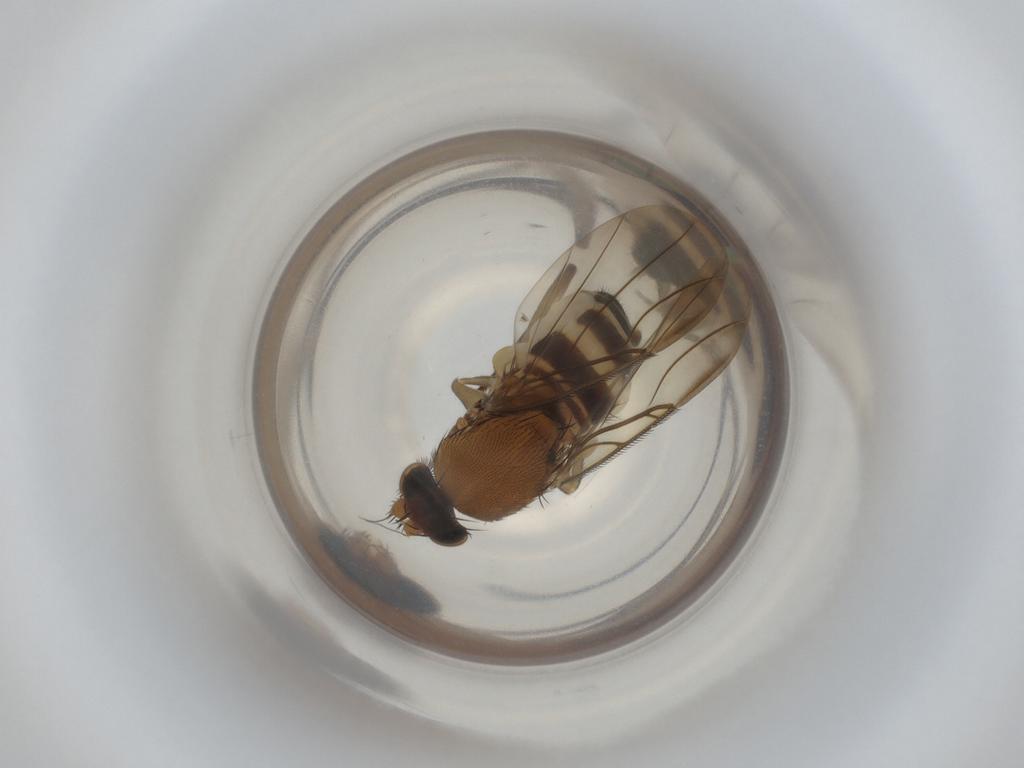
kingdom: Animalia
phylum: Arthropoda
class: Insecta
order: Diptera
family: Phoridae
